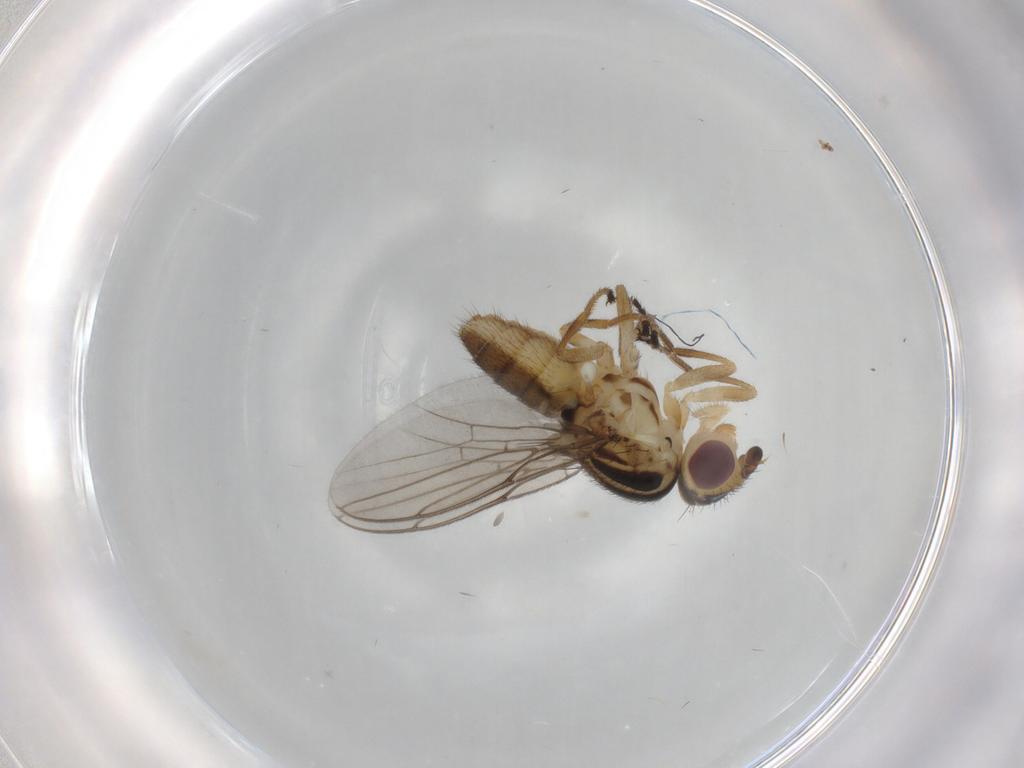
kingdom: Animalia
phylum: Arthropoda
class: Insecta
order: Diptera
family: Chloropidae
